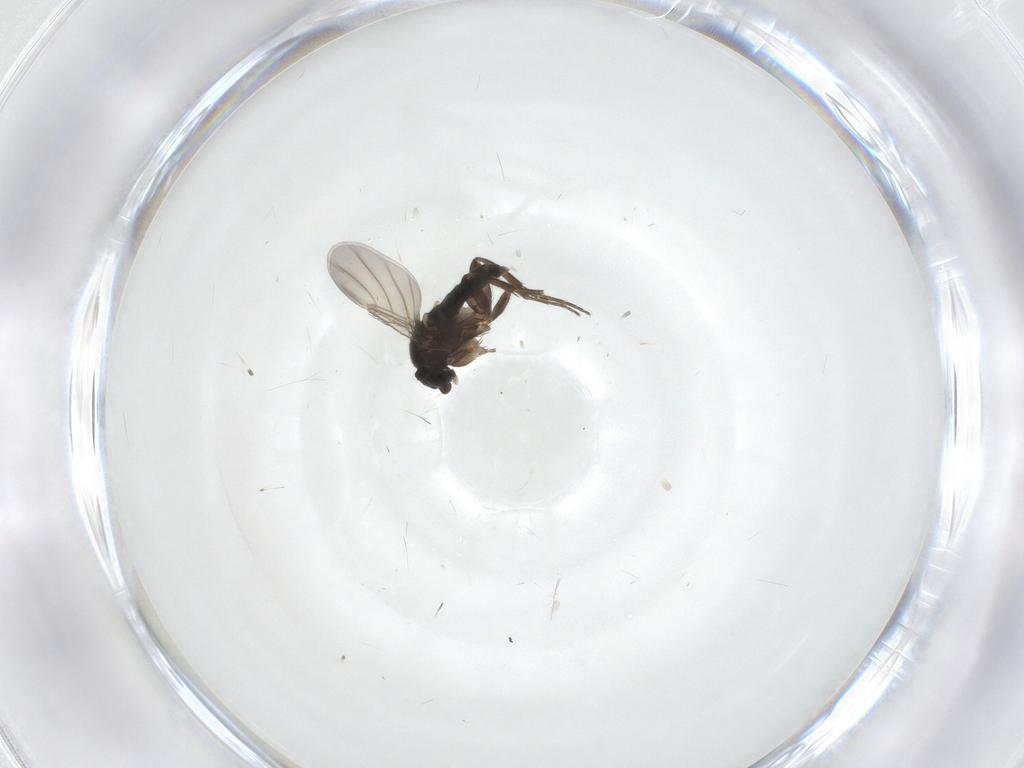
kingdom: Animalia
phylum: Arthropoda
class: Insecta
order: Diptera
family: Phoridae
